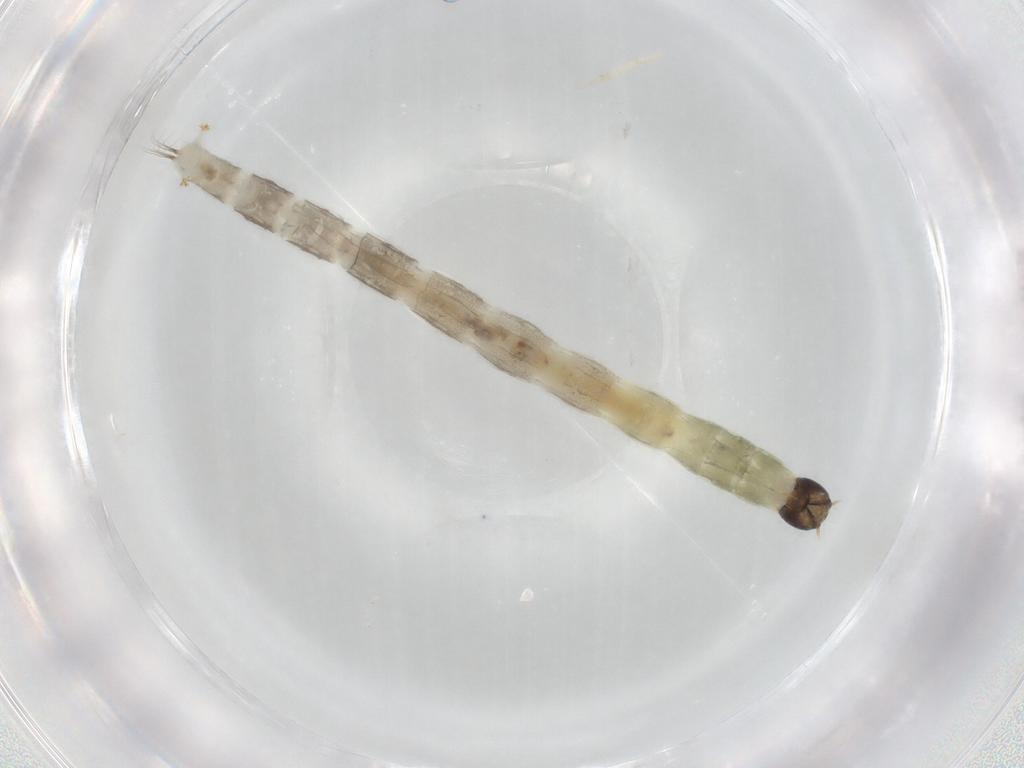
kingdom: Animalia
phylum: Arthropoda
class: Insecta
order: Diptera
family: Chironomidae
